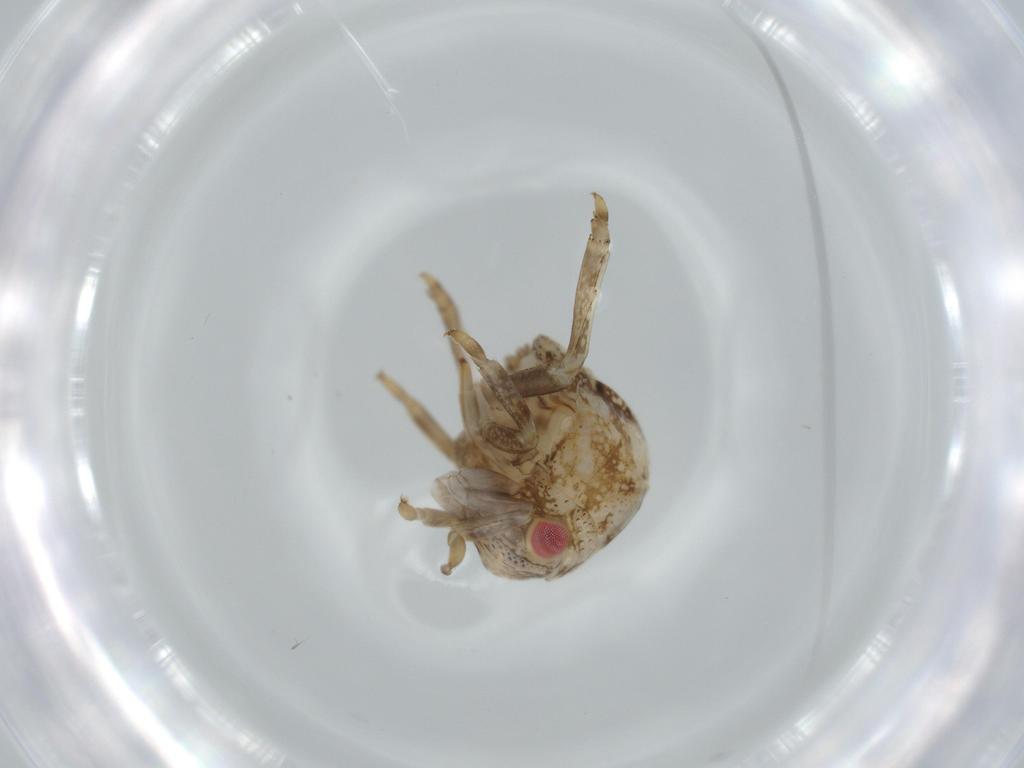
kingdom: Animalia
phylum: Arthropoda
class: Insecta
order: Hemiptera
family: Acanaloniidae
